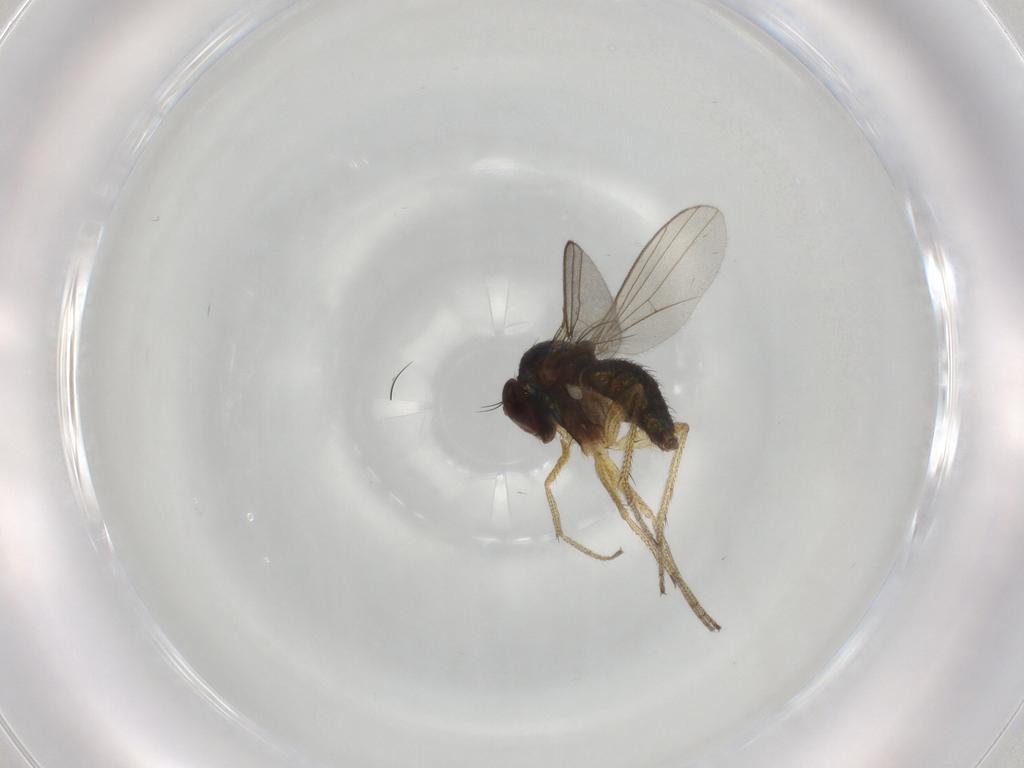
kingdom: Animalia
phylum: Arthropoda
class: Insecta
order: Diptera
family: Dolichopodidae
